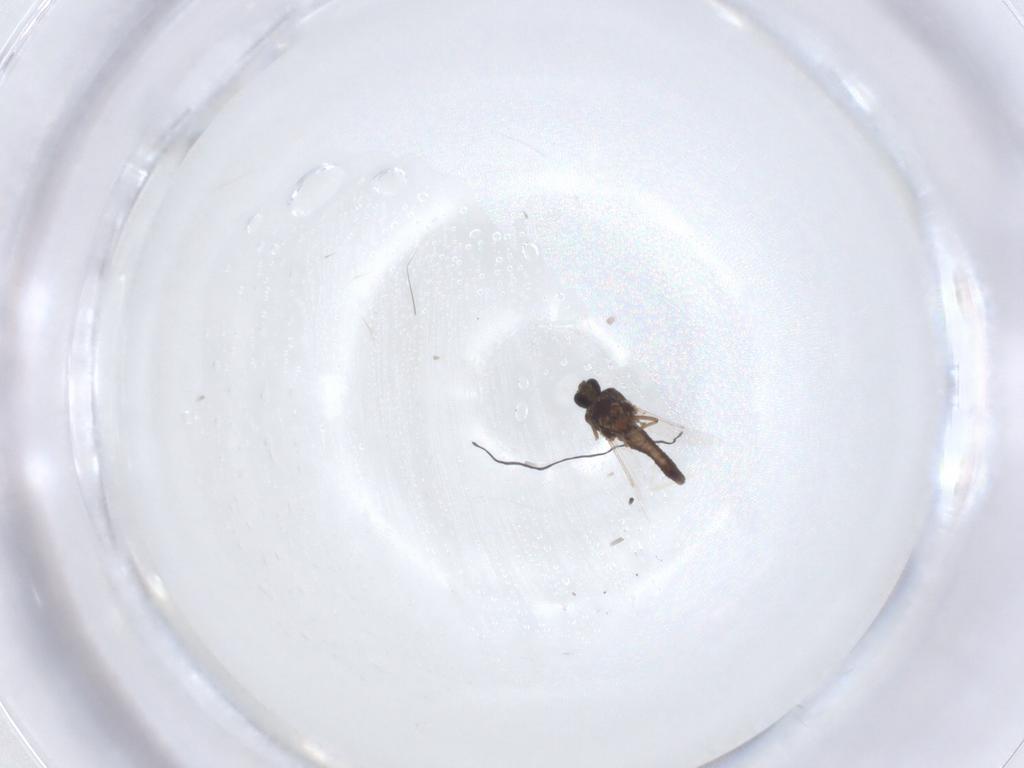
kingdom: Animalia
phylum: Arthropoda
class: Insecta
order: Diptera
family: Ceratopogonidae
